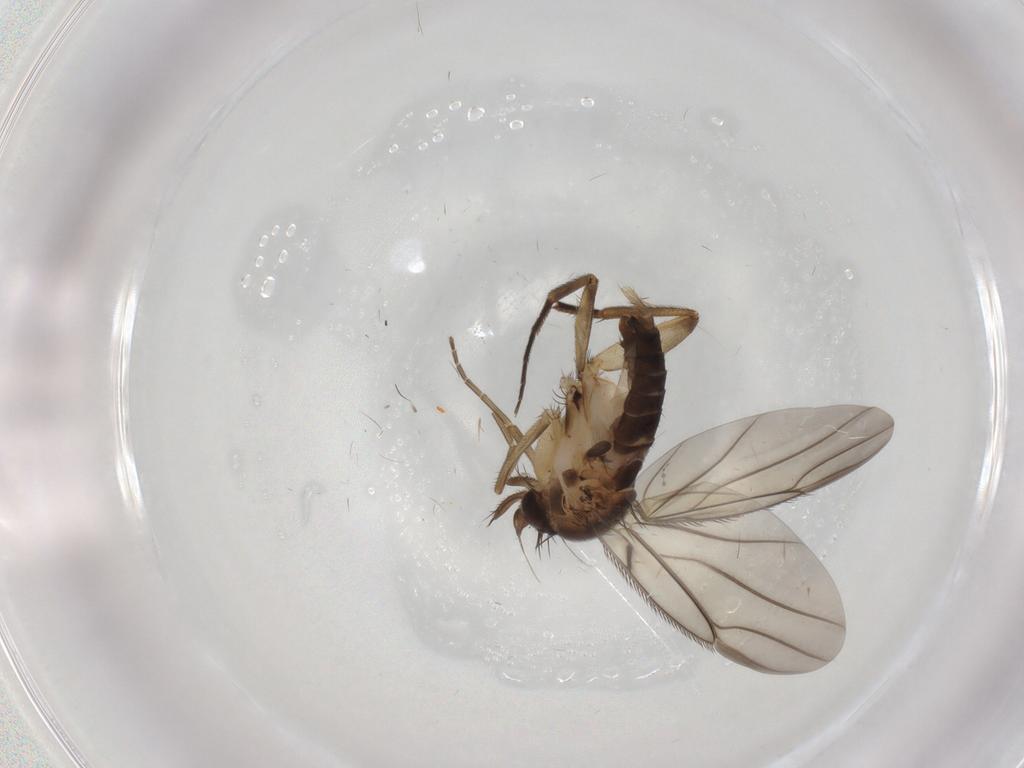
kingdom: Animalia
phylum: Arthropoda
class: Insecta
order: Diptera
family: Phoridae
